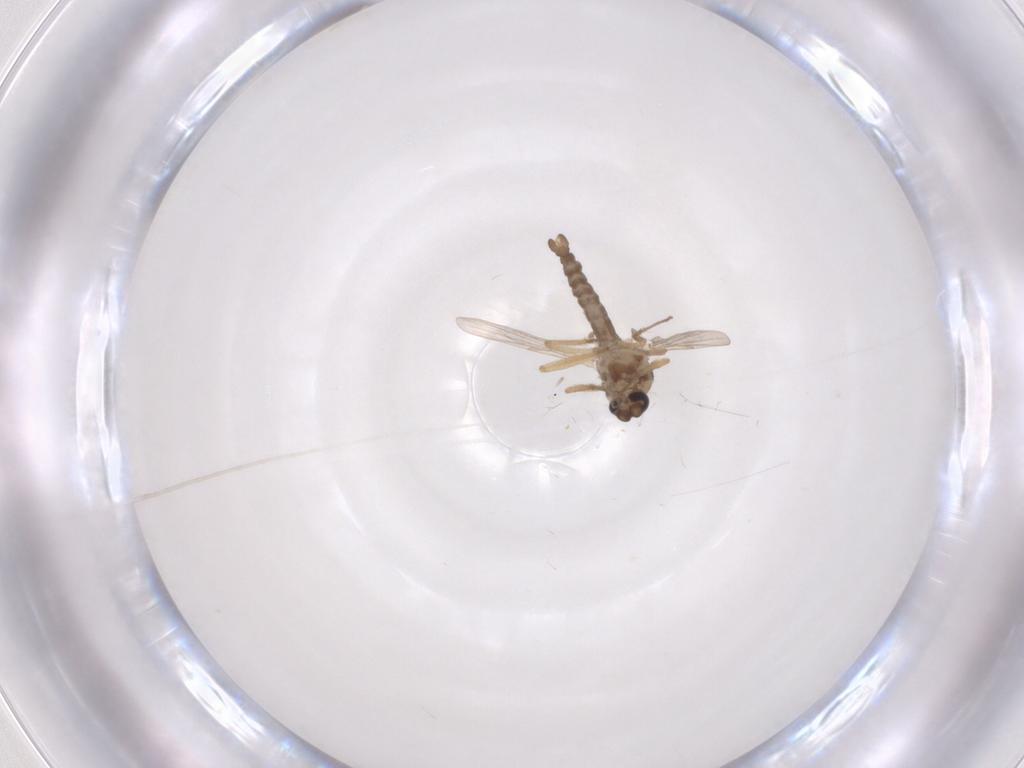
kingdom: Animalia
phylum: Arthropoda
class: Insecta
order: Diptera
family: Ceratopogonidae
